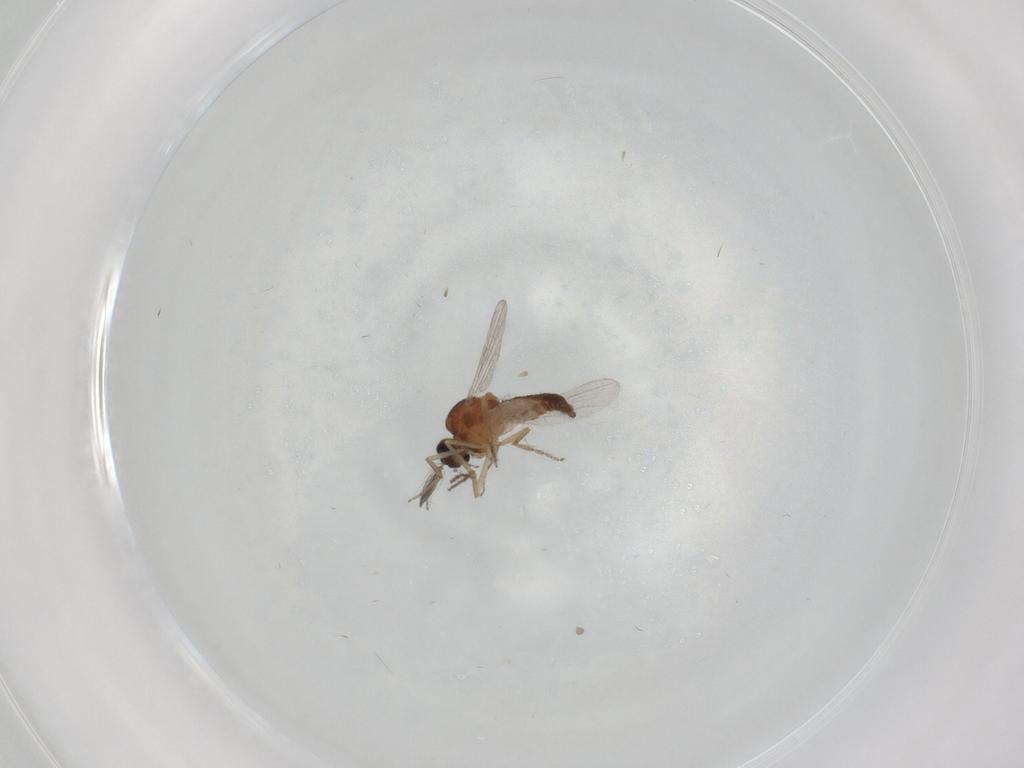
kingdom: Animalia
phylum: Arthropoda
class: Insecta
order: Diptera
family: Ceratopogonidae
